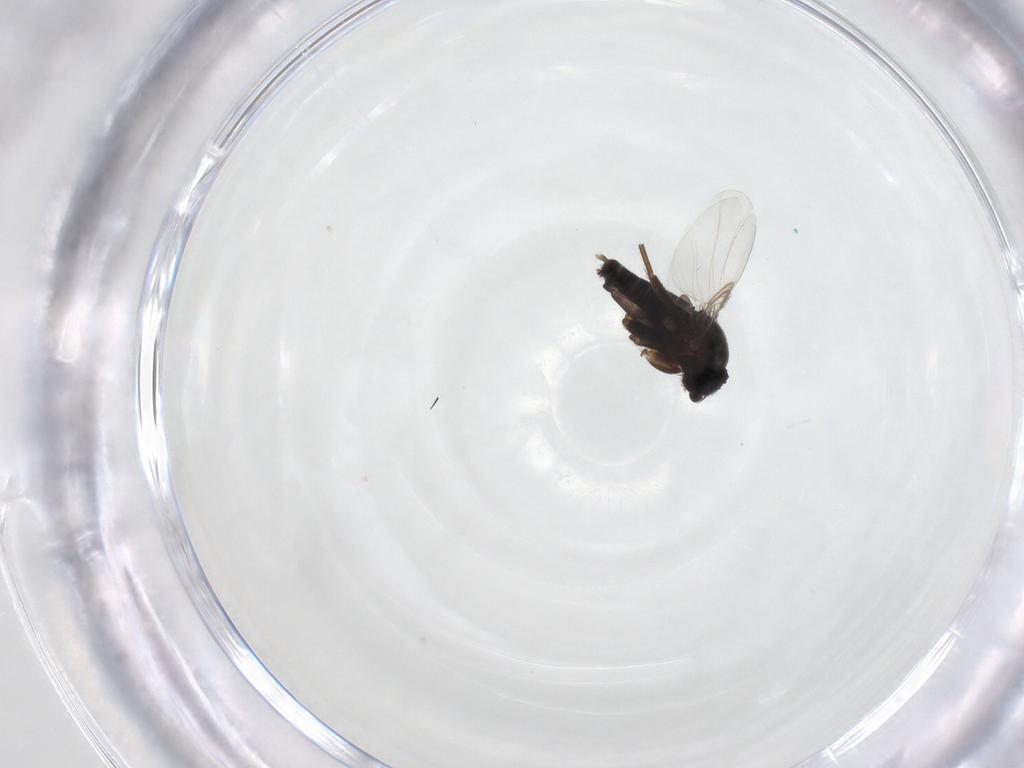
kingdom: Animalia
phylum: Arthropoda
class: Insecta
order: Diptera
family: Phoridae
